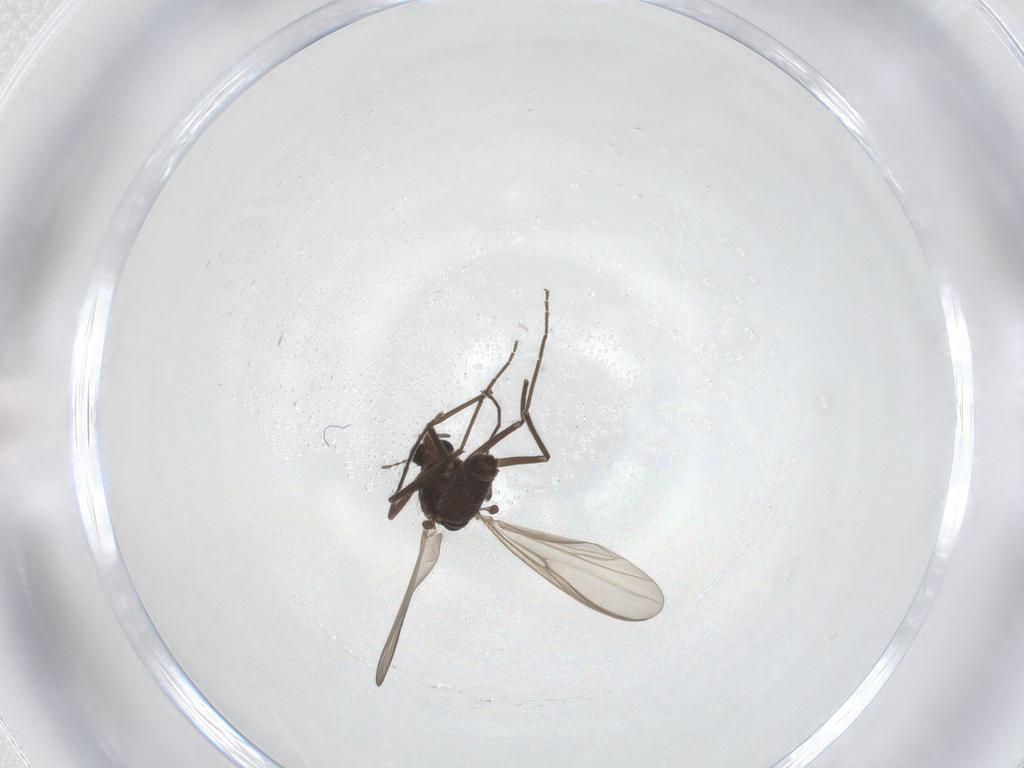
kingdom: Animalia
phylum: Arthropoda
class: Insecta
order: Diptera
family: Chironomidae
